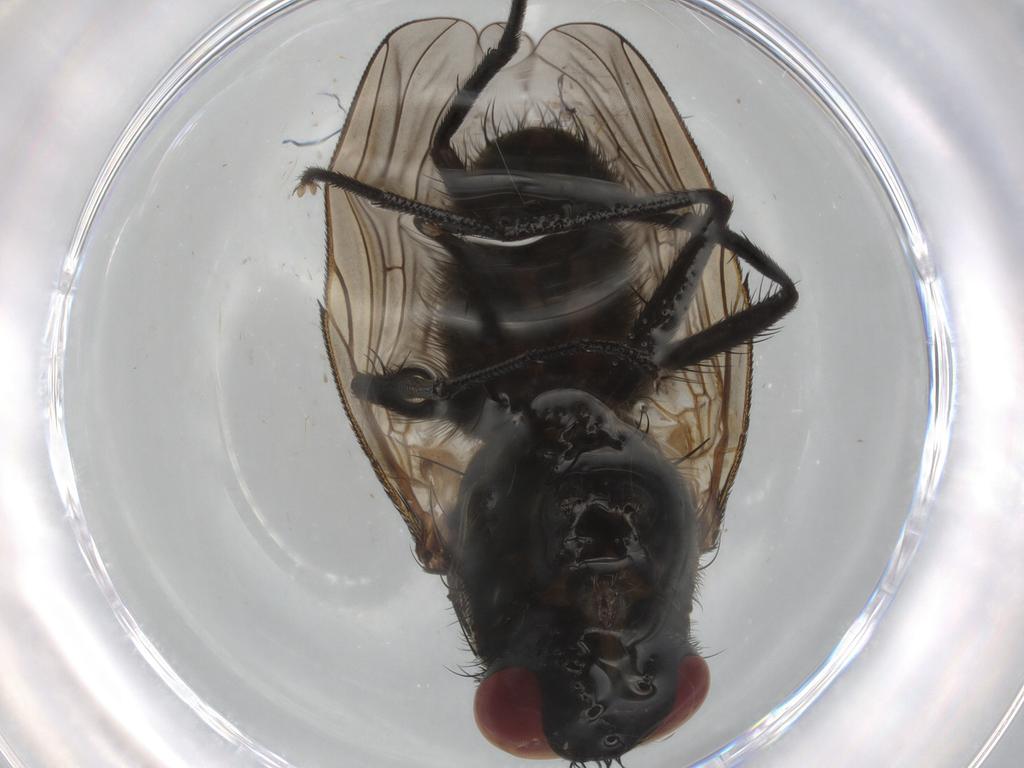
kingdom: Animalia
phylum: Arthropoda
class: Insecta
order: Diptera
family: Muscidae
